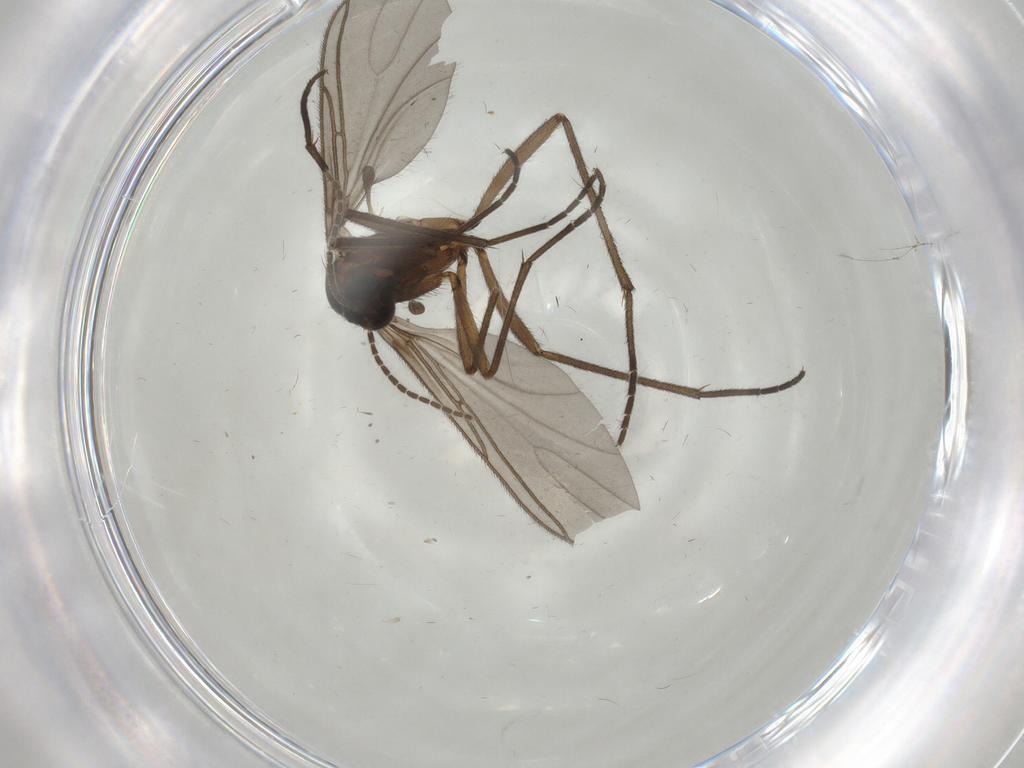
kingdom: Animalia
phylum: Arthropoda
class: Insecta
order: Diptera
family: Sciaridae
